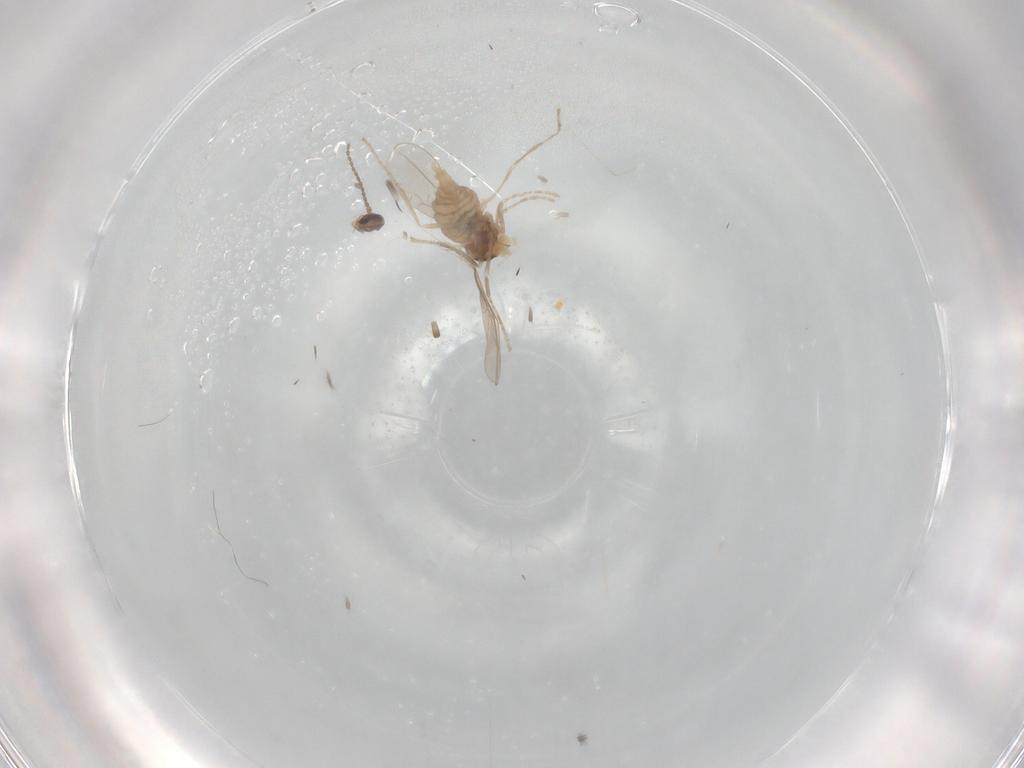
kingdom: Animalia
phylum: Arthropoda
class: Insecta
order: Diptera
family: Cecidomyiidae
